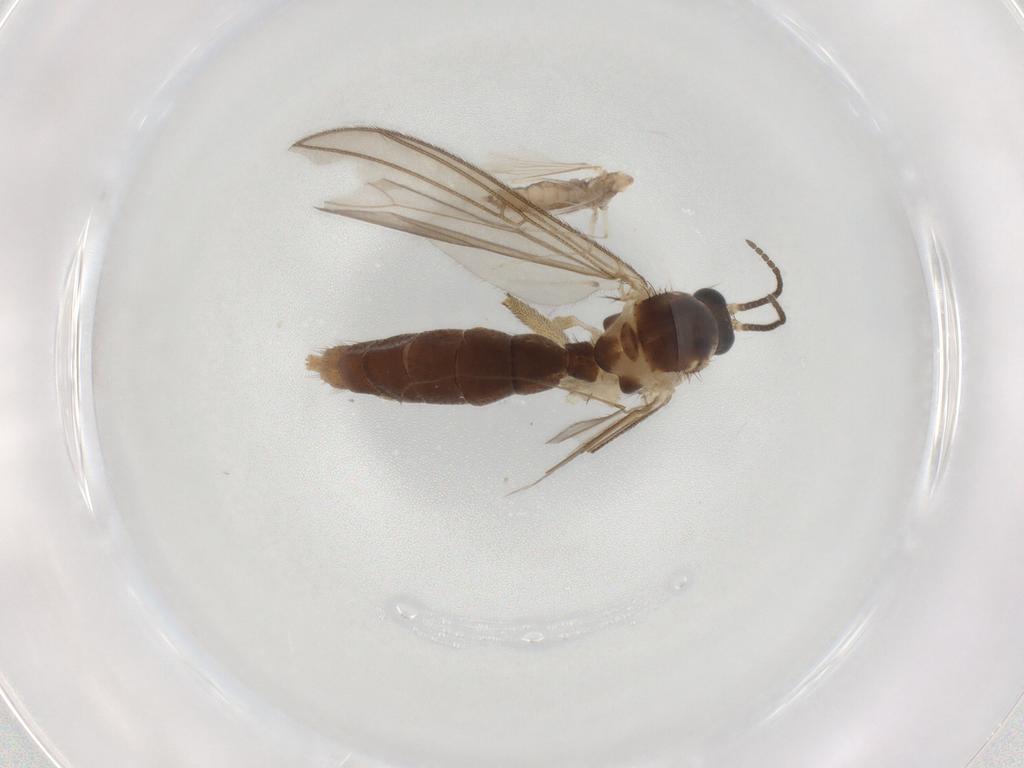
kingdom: Animalia
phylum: Arthropoda
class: Insecta
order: Diptera
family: Mycetophilidae
